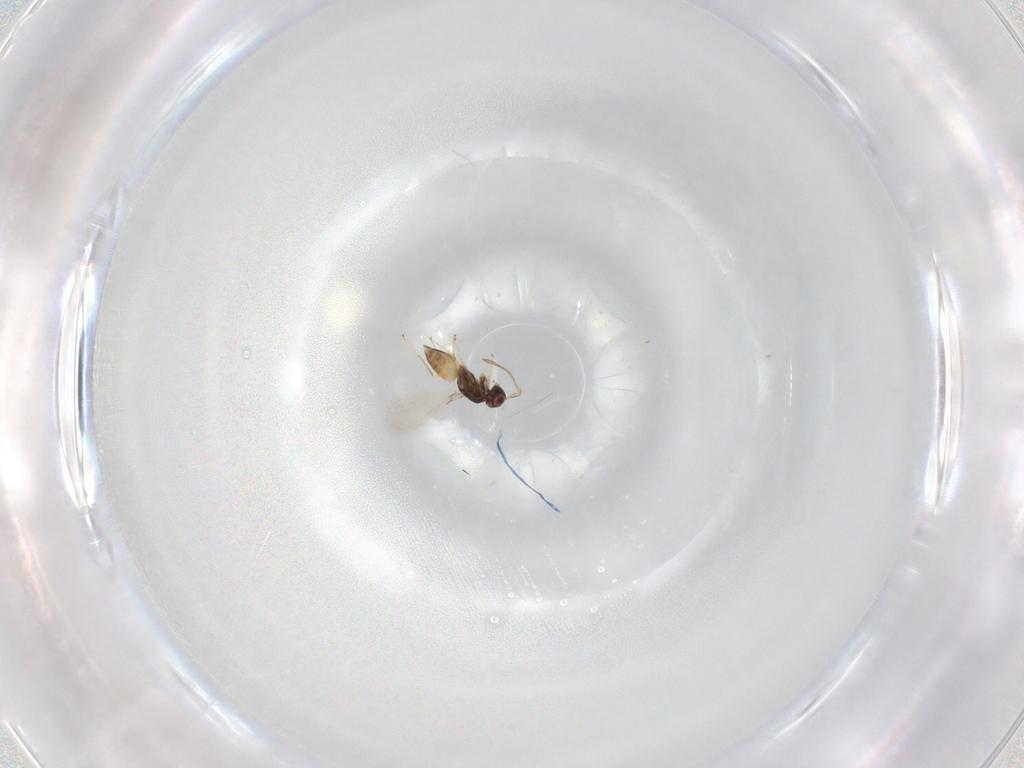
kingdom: Animalia
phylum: Arthropoda
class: Insecta
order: Hymenoptera
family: Mymaridae
